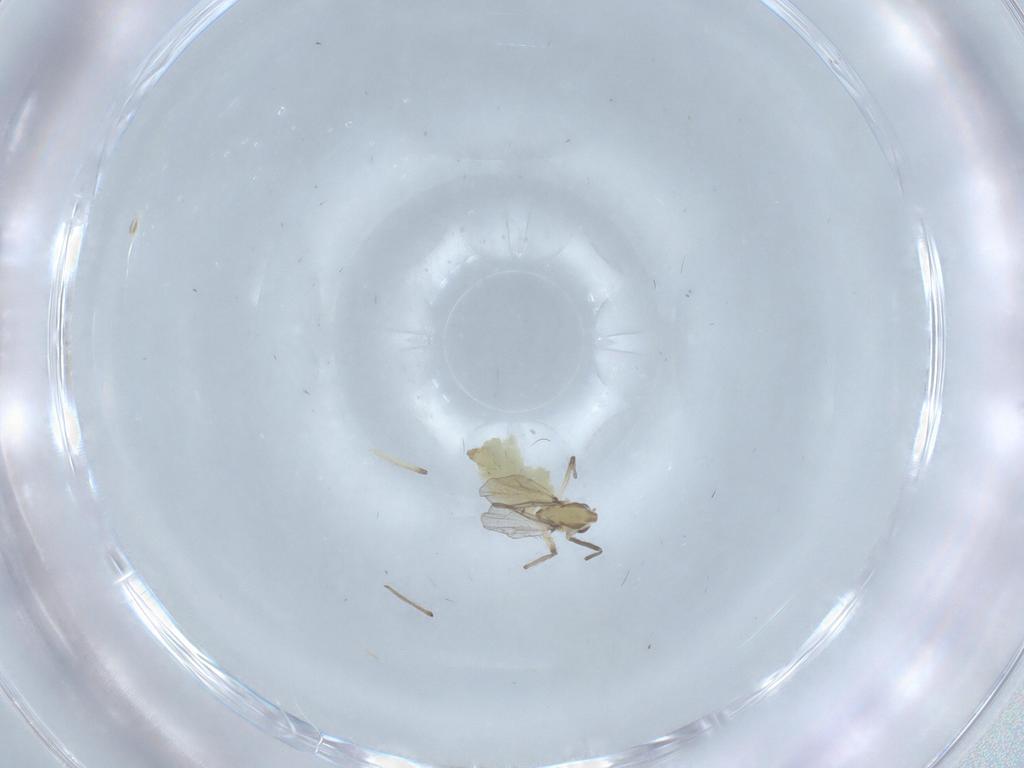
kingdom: Animalia
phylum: Arthropoda
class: Insecta
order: Diptera
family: Chironomidae
